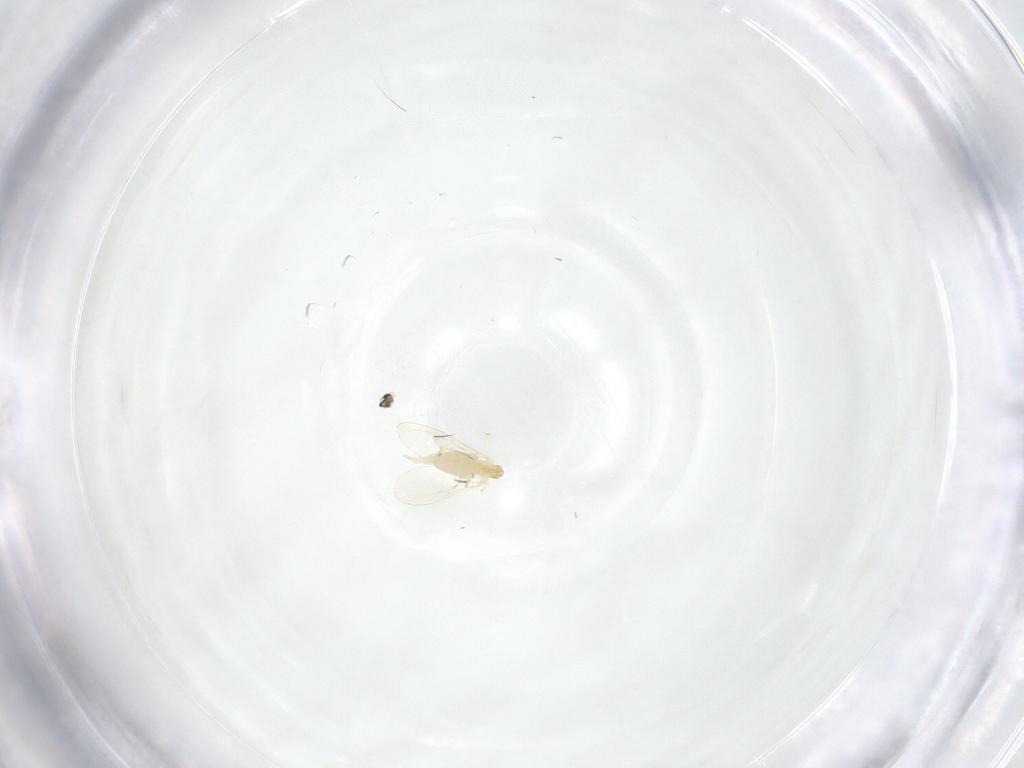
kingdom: Animalia
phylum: Arthropoda
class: Insecta
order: Diptera
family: Cecidomyiidae
